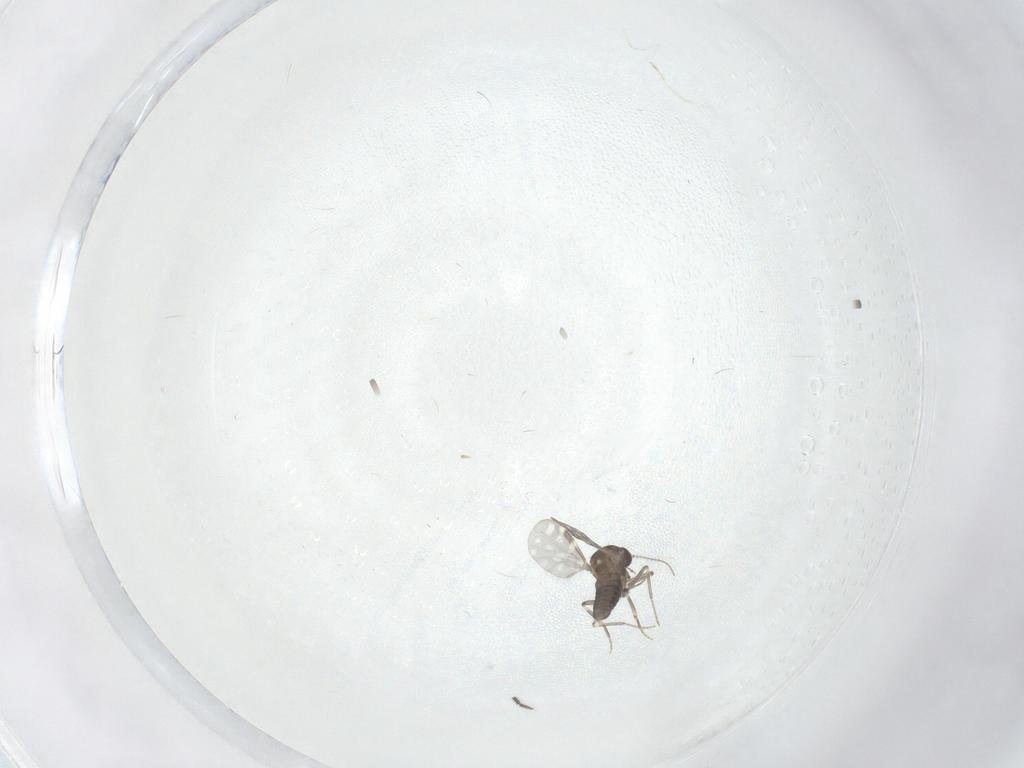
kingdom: Animalia
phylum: Arthropoda
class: Insecta
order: Diptera
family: Sciaridae
